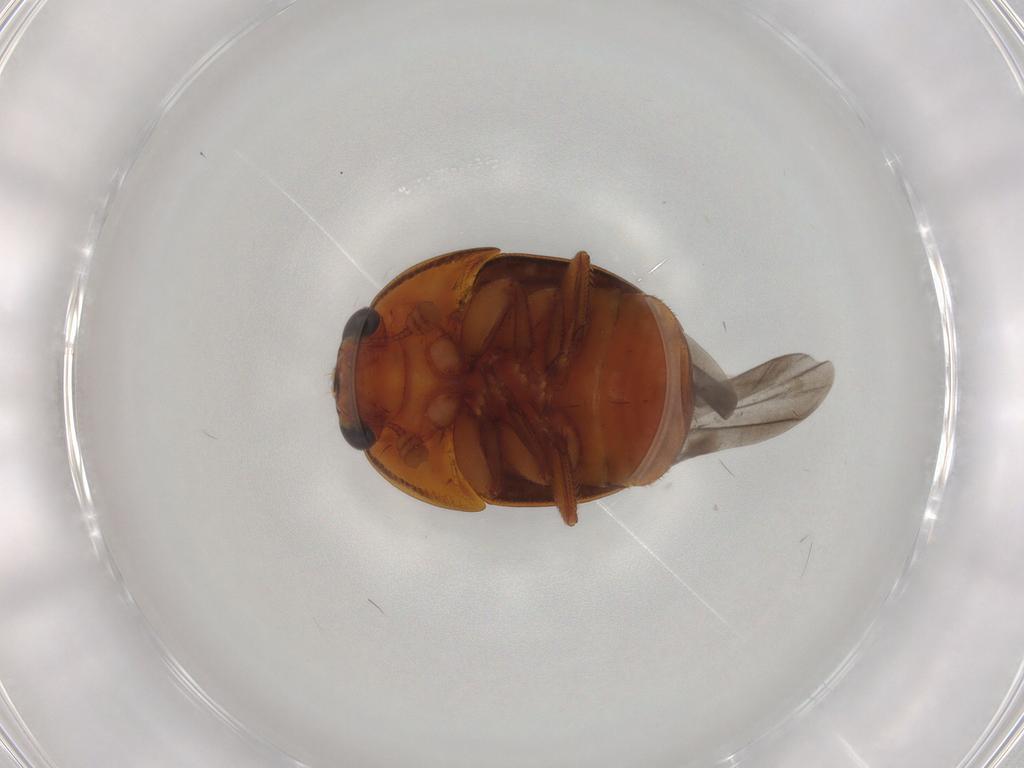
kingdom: Animalia
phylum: Arthropoda
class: Insecta
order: Coleoptera
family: Nitidulidae
